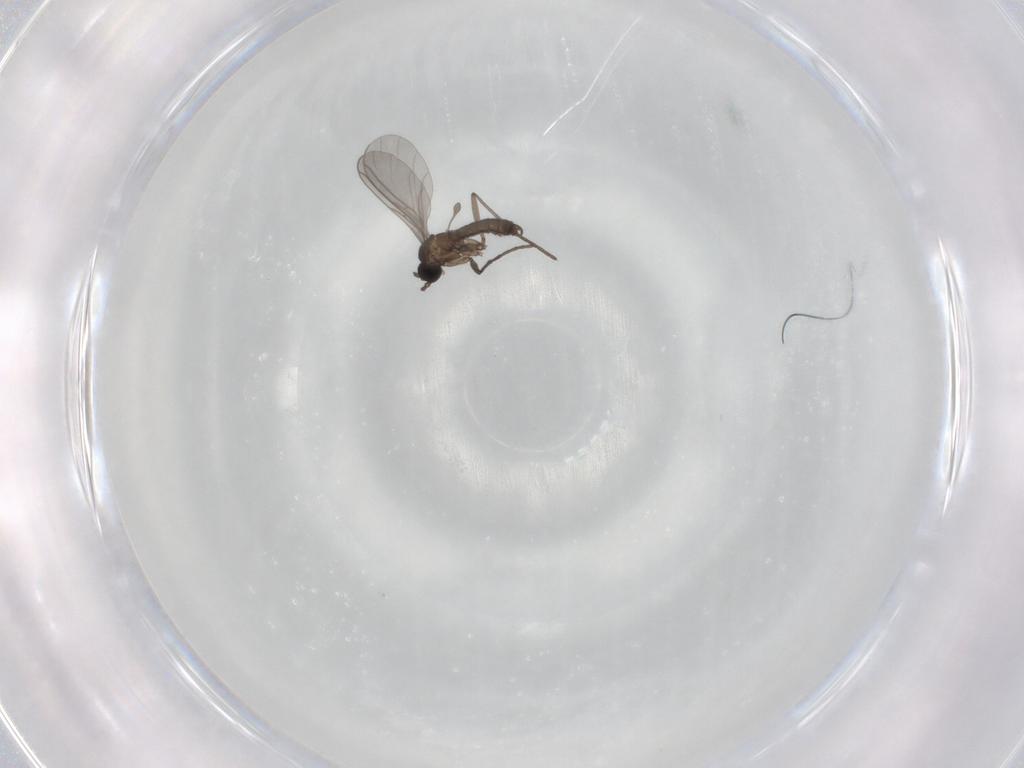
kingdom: Animalia
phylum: Arthropoda
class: Insecta
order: Diptera
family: Sciaridae
